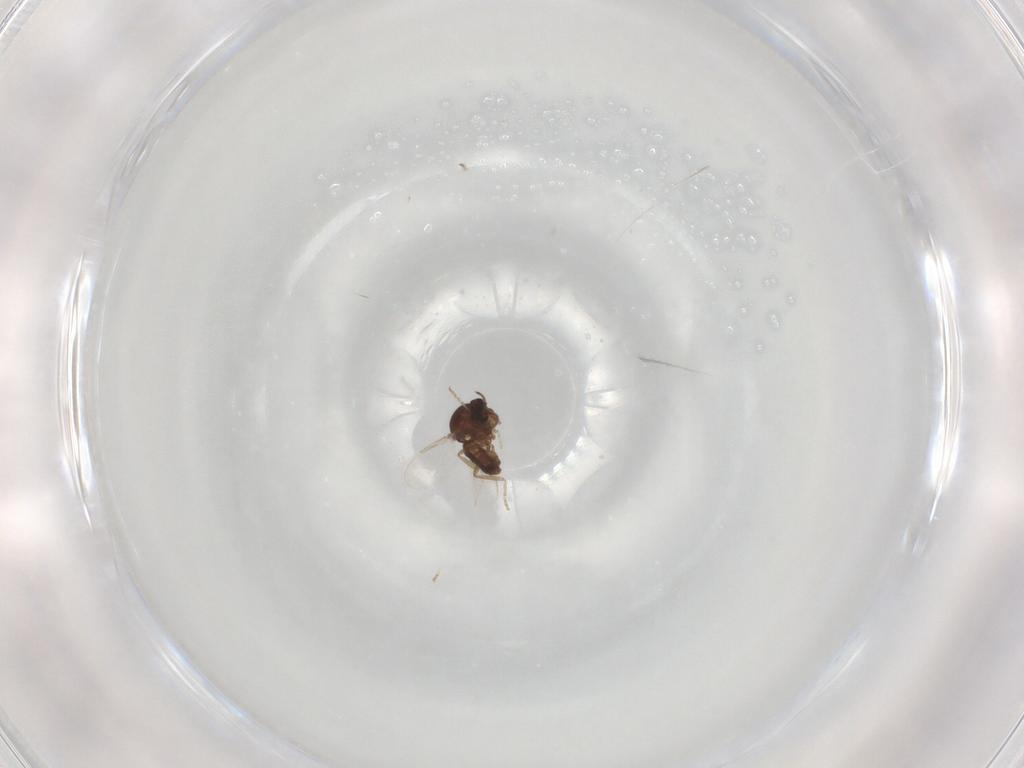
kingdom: Animalia
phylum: Arthropoda
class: Insecta
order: Diptera
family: Ceratopogonidae
